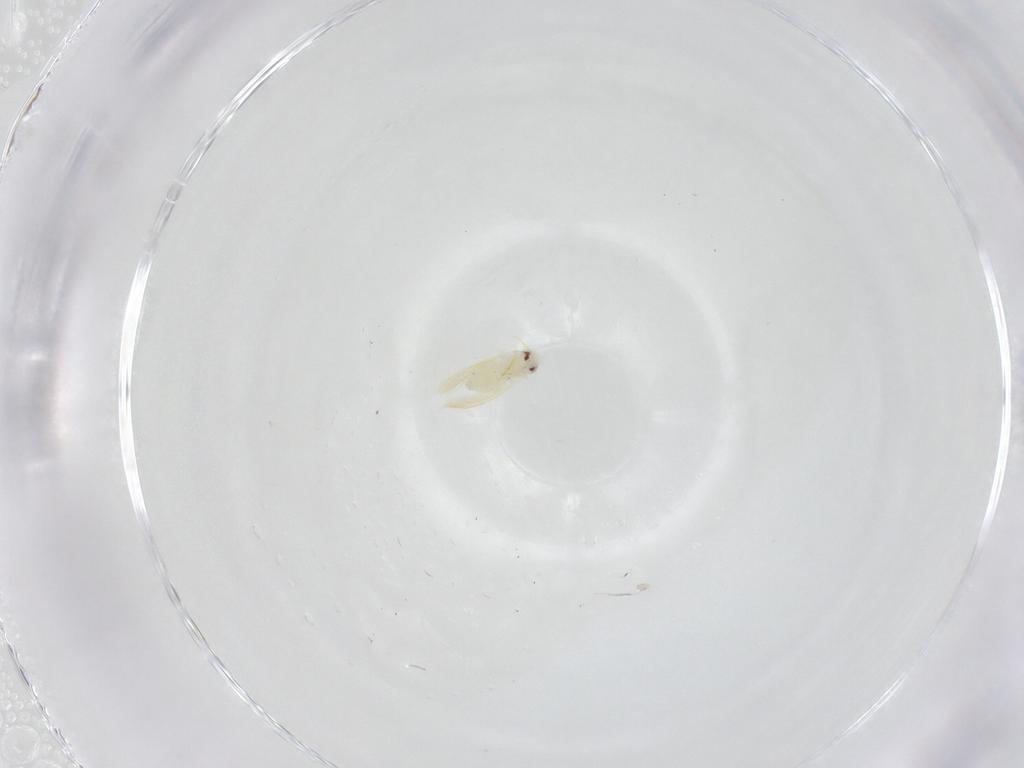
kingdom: Animalia
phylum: Arthropoda
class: Insecta
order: Hemiptera
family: Aleyrodidae
